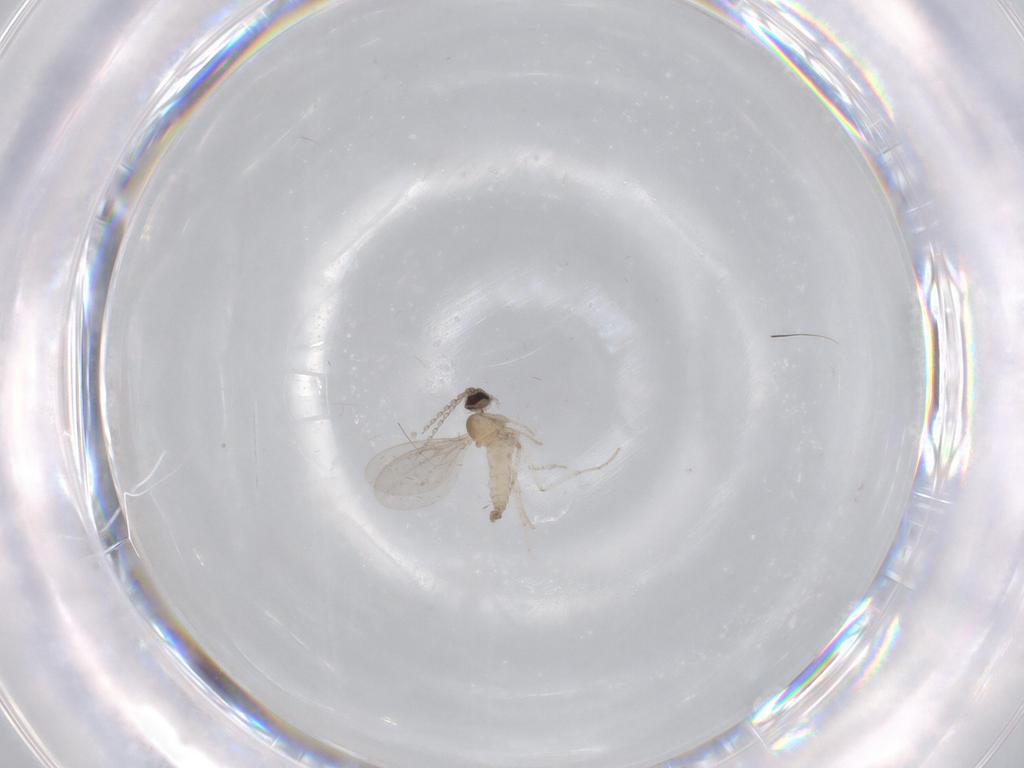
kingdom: Animalia
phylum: Arthropoda
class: Insecta
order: Diptera
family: Cecidomyiidae
